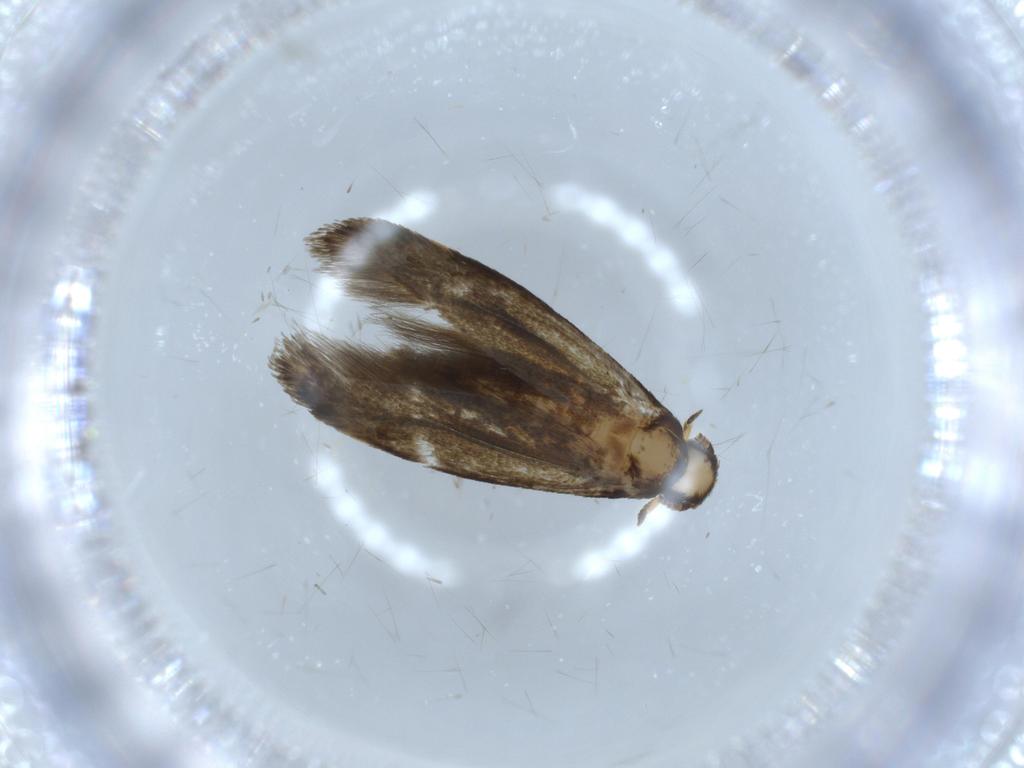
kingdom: Animalia
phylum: Arthropoda
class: Insecta
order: Lepidoptera
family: Tineidae
